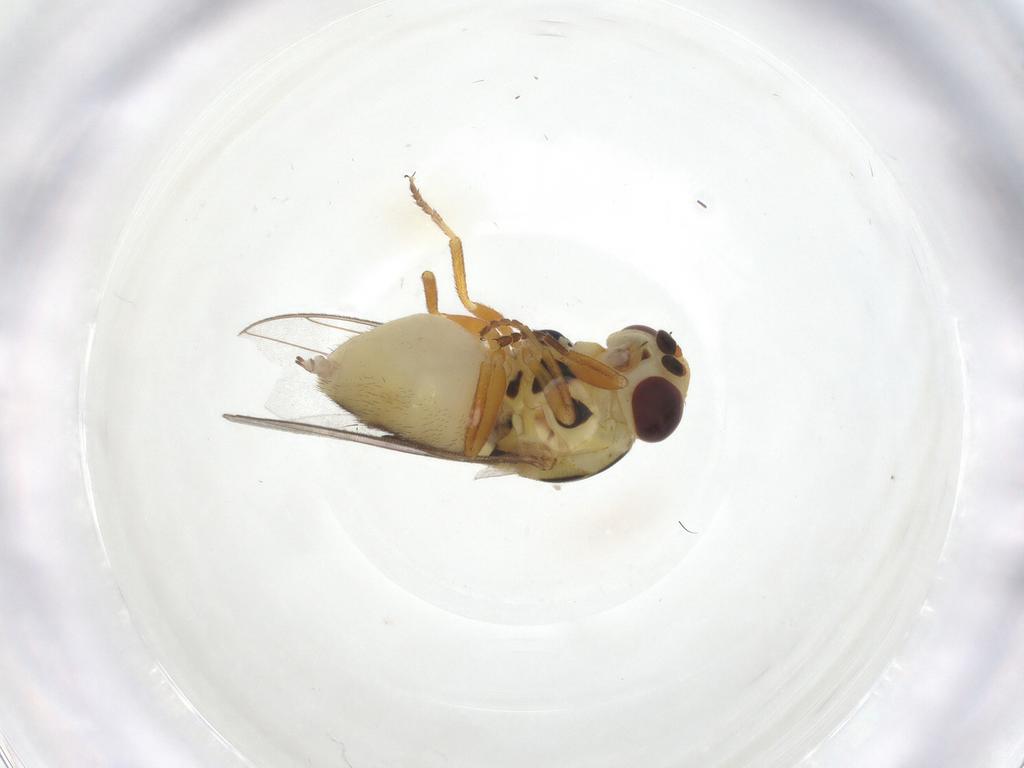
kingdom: Animalia
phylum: Arthropoda
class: Insecta
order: Diptera
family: Chloropidae
